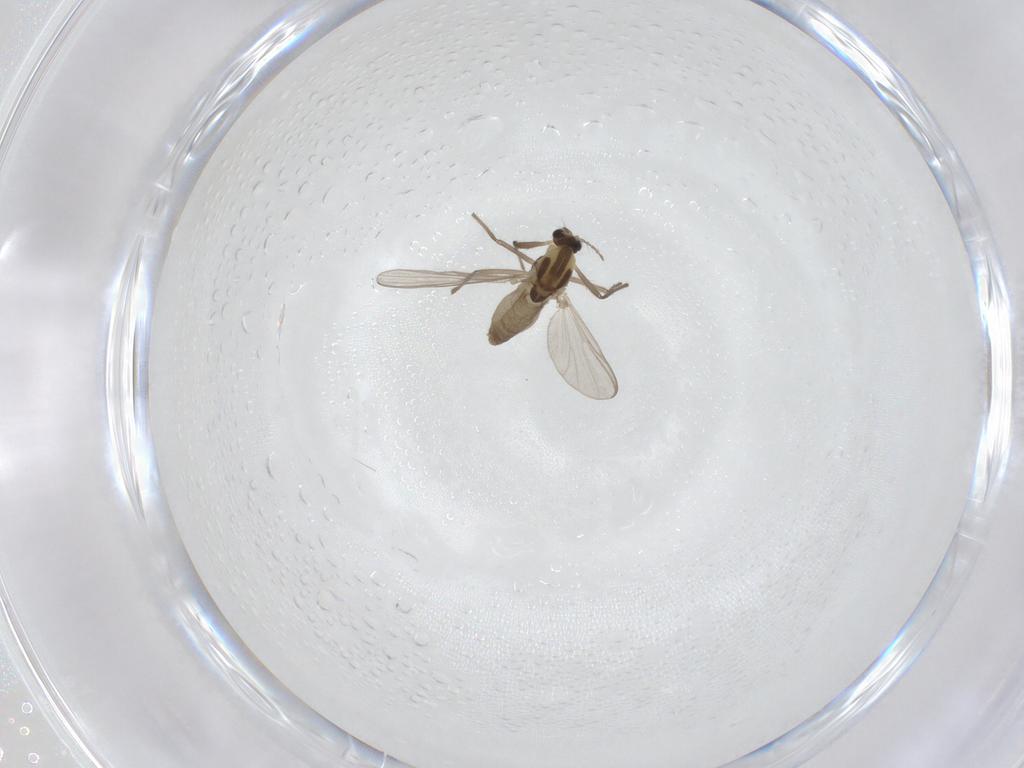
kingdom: Animalia
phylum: Arthropoda
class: Insecta
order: Diptera
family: Chironomidae
